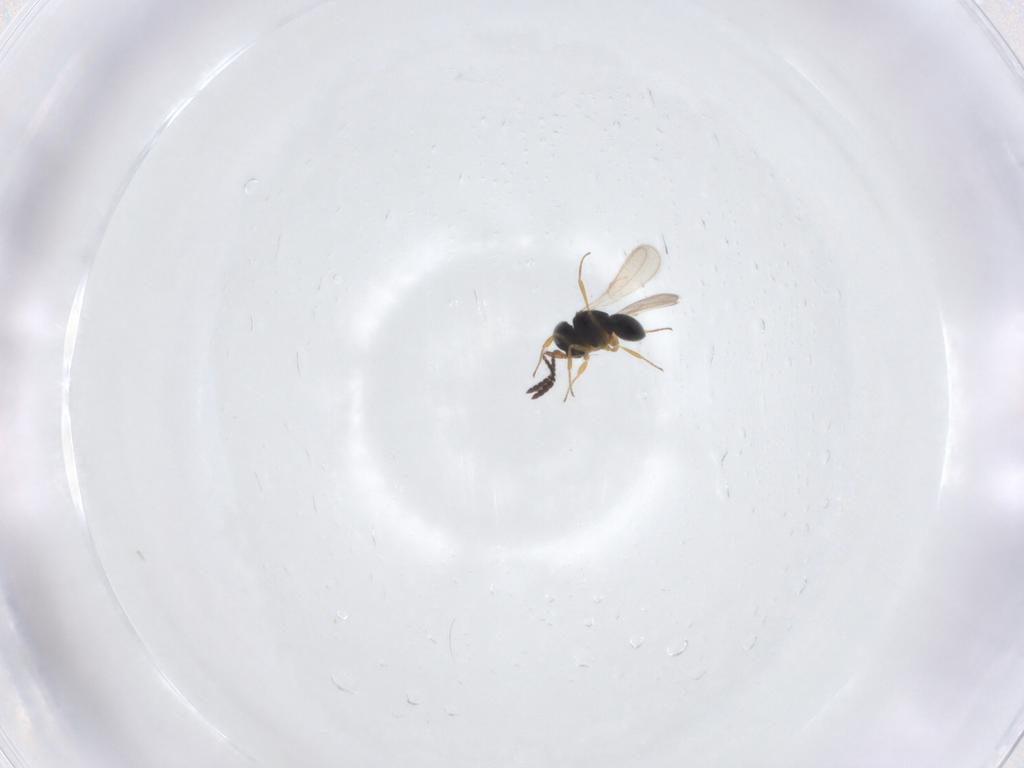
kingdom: Animalia
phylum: Arthropoda
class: Insecta
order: Hymenoptera
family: Scelionidae
